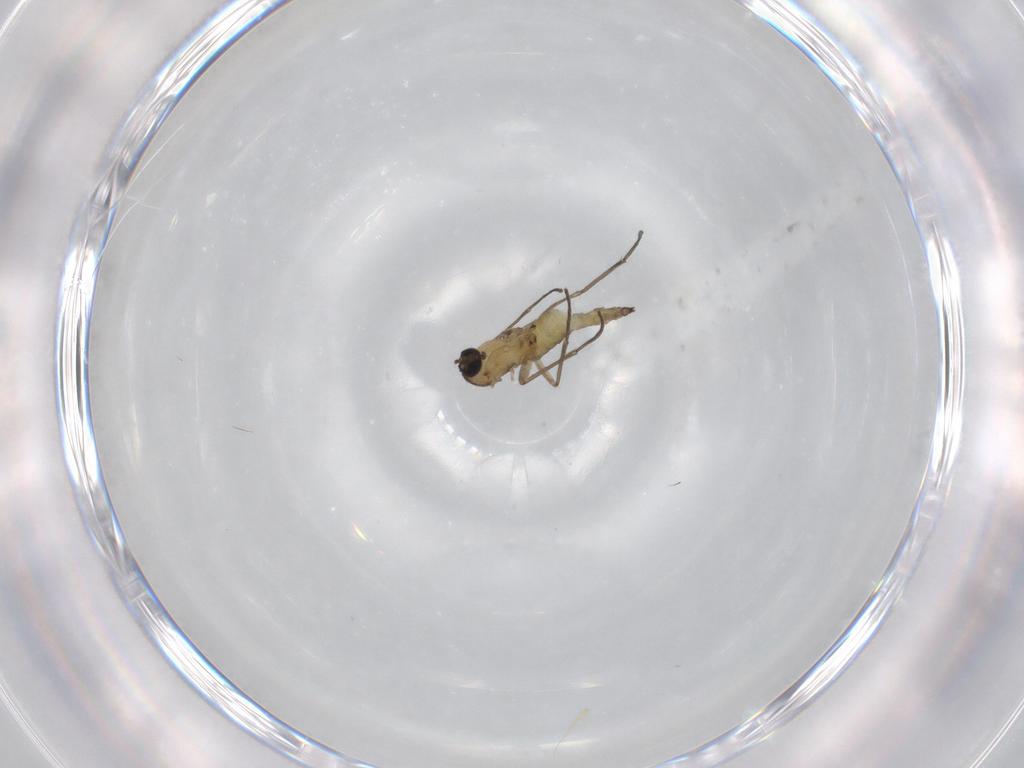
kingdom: Animalia
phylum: Arthropoda
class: Insecta
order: Diptera
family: Sciaridae
